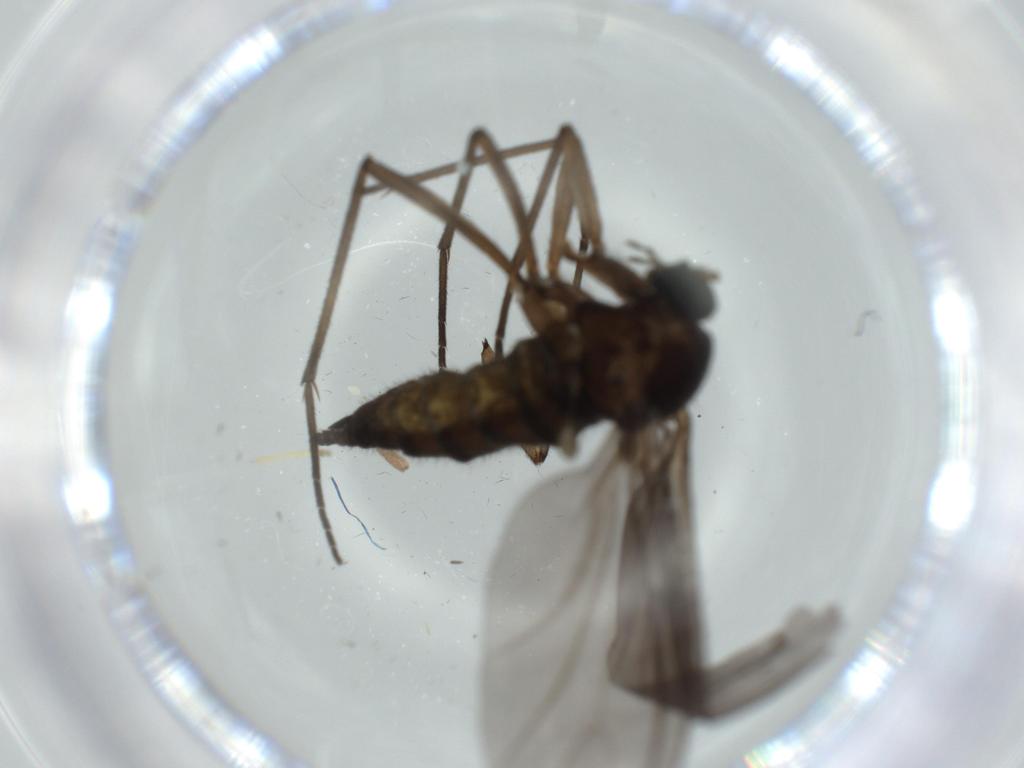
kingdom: Animalia
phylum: Arthropoda
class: Insecta
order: Diptera
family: Sciaridae
